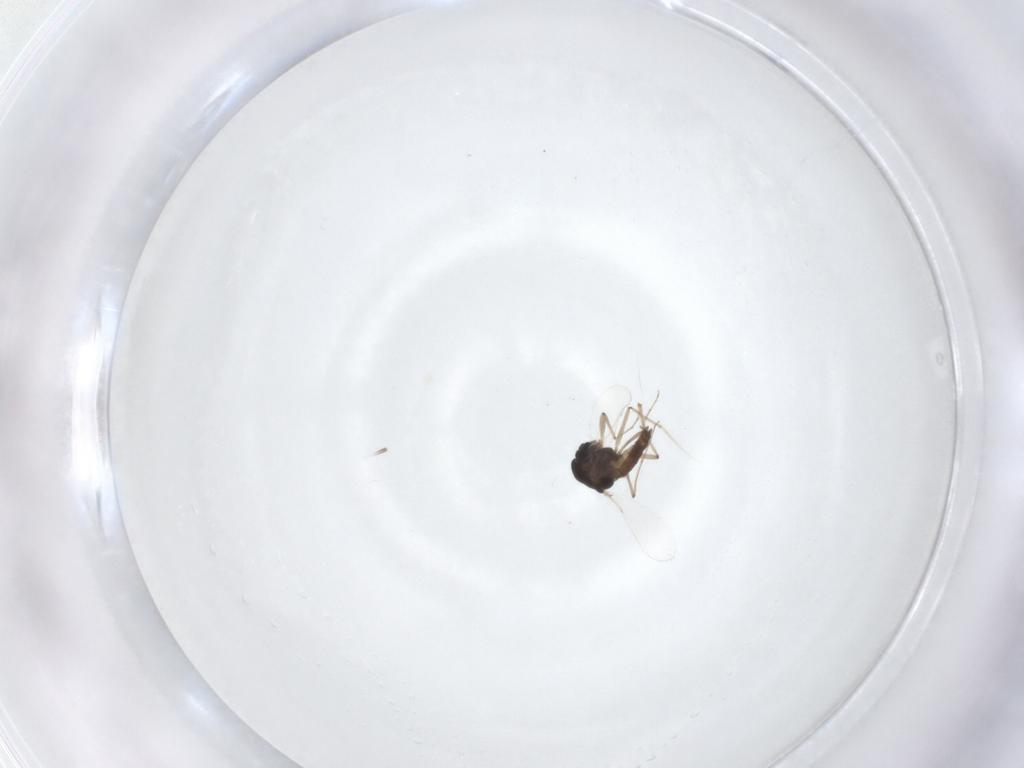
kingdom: Animalia
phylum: Arthropoda
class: Insecta
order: Diptera
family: Chironomidae
